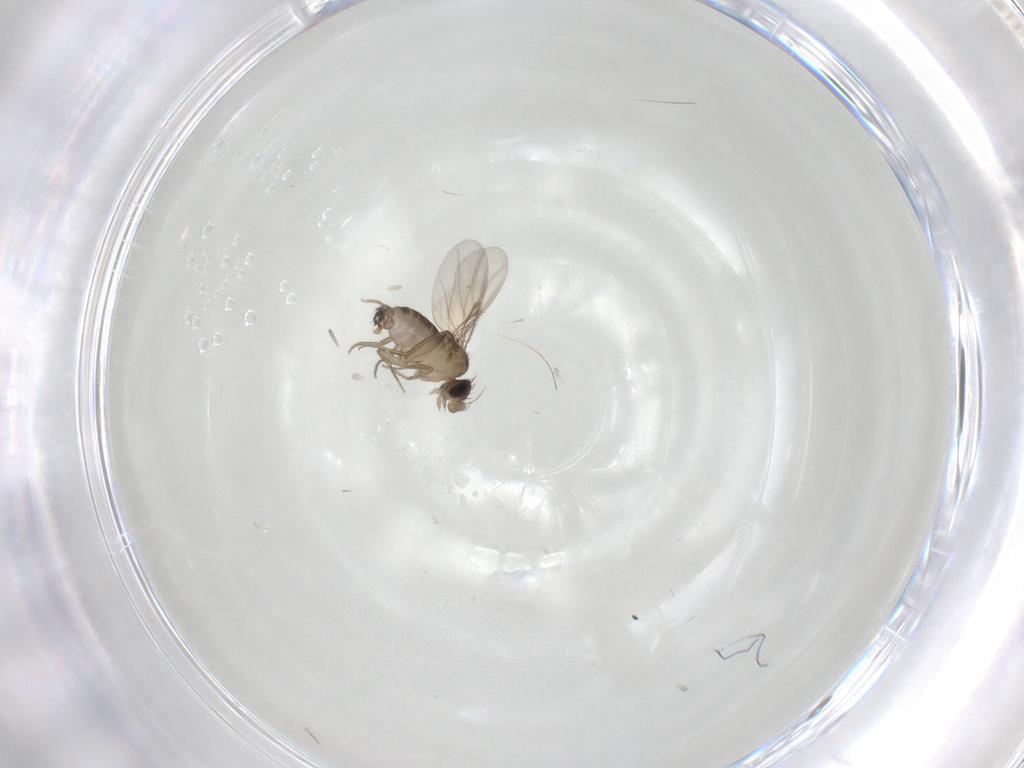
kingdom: Animalia
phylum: Arthropoda
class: Insecta
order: Diptera
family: Phoridae
